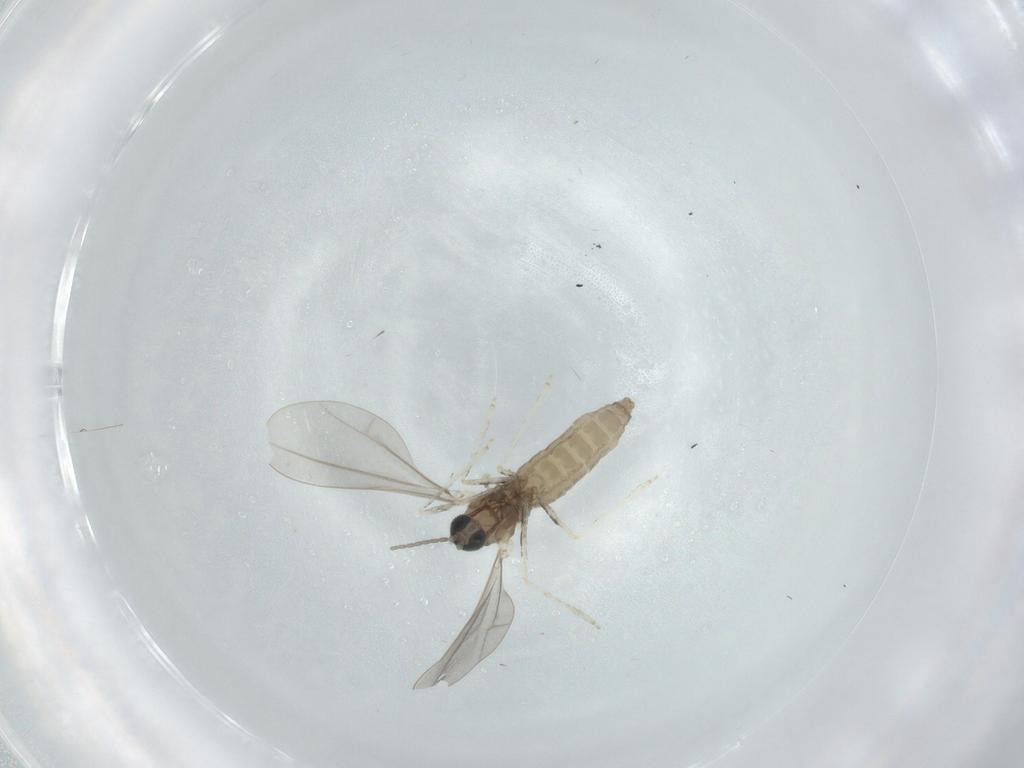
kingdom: Animalia
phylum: Arthropoda
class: Insecta
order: Diptera
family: Cecidomyiidae
